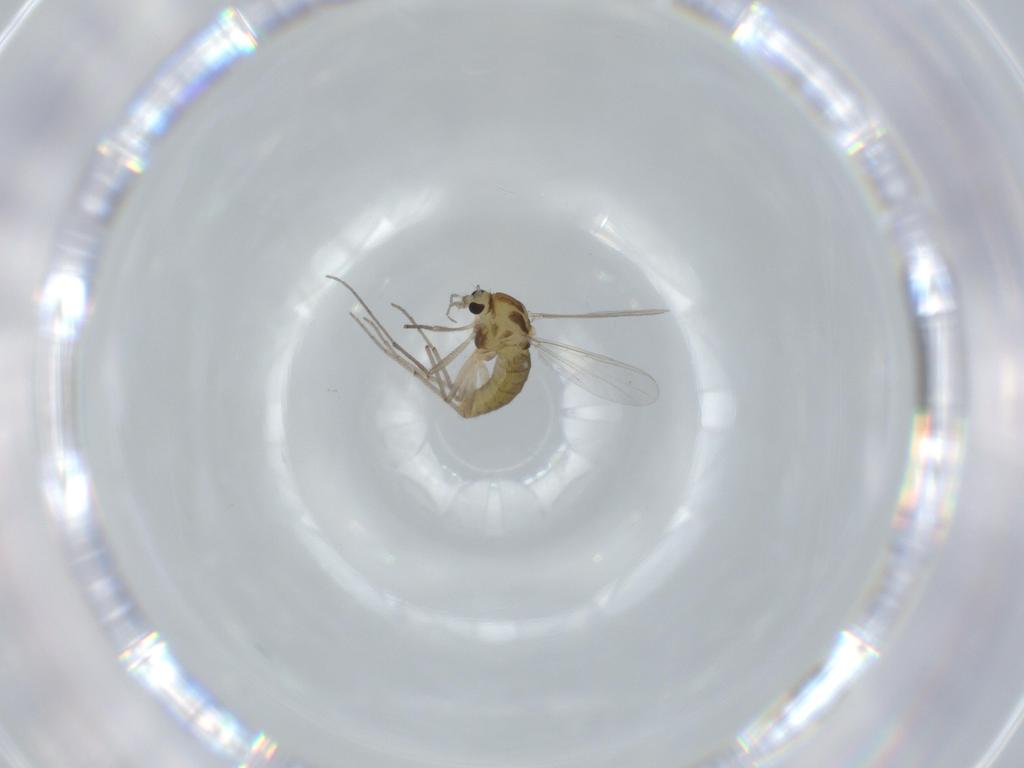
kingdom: Animalia
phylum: Arthropoda
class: Insecta
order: Diptera
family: Chironomidae
